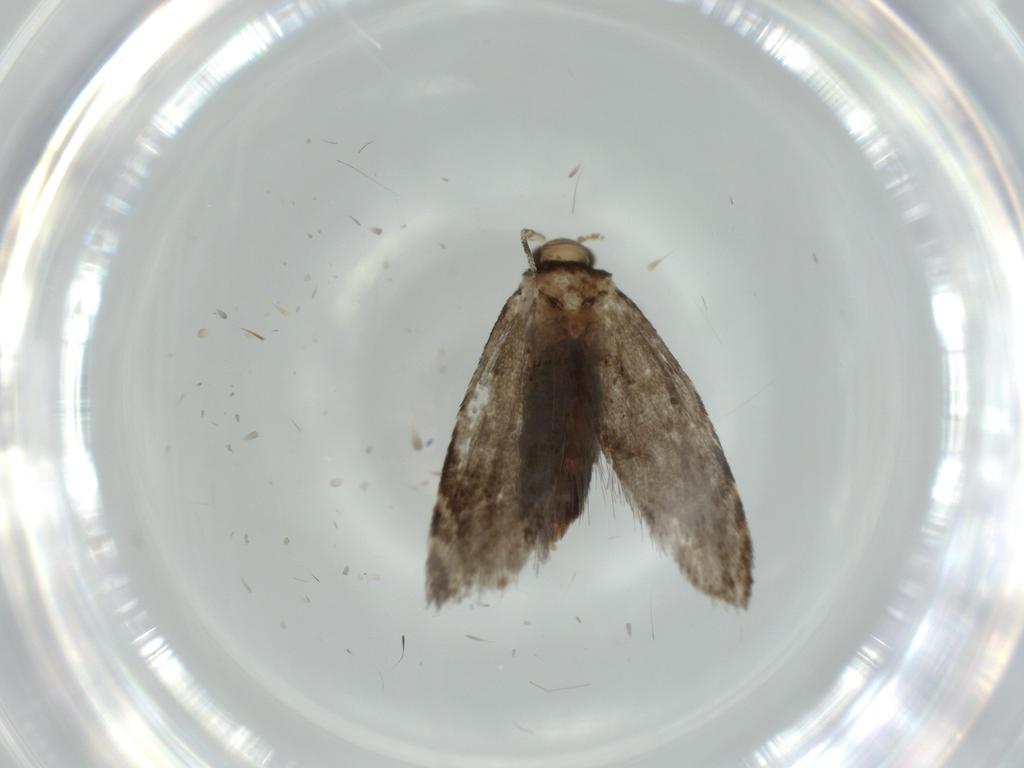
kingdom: Animalia
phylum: Arthropoda
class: Insecta
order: Lepidoptera
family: Tineidae
